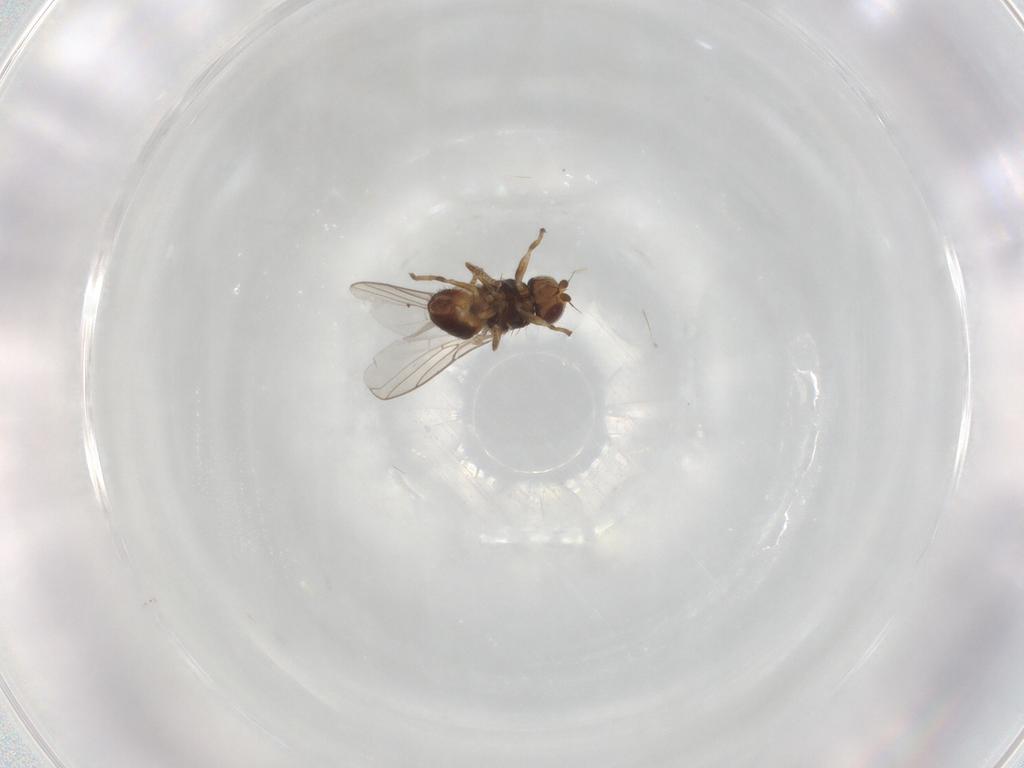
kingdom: Animalia
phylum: Arthropoda
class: Insecta
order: Diptera
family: Chloropidae
